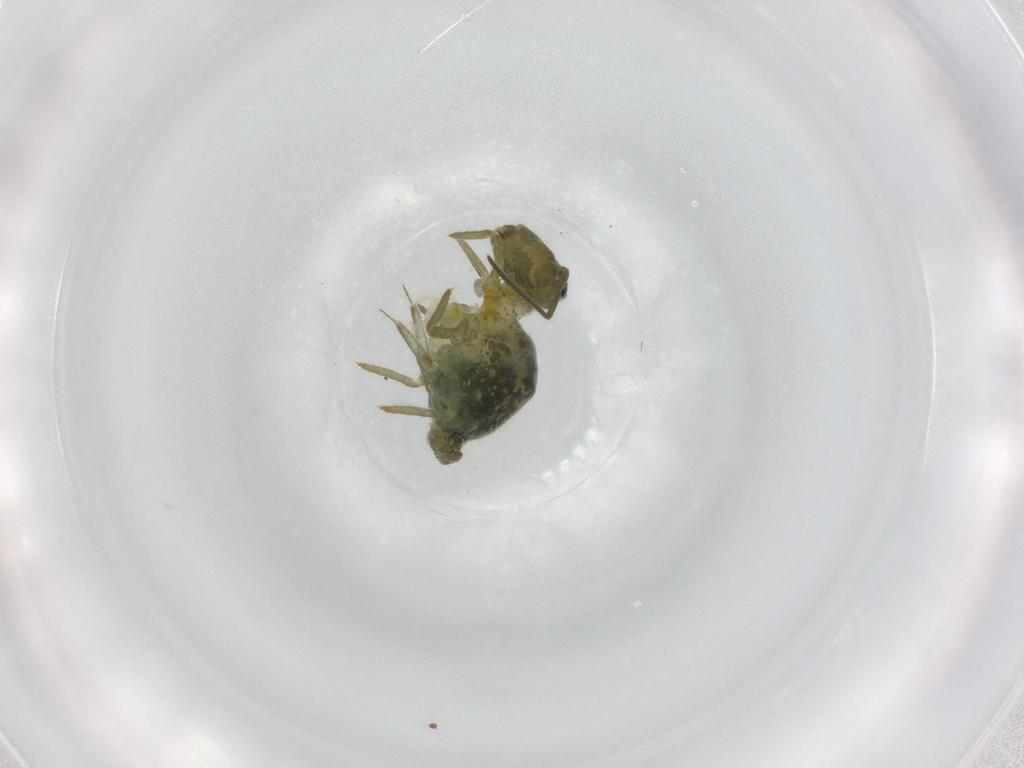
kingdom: Animalia
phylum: Arthropoda
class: Collembola
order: Symphypleona
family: Sminthuridae
